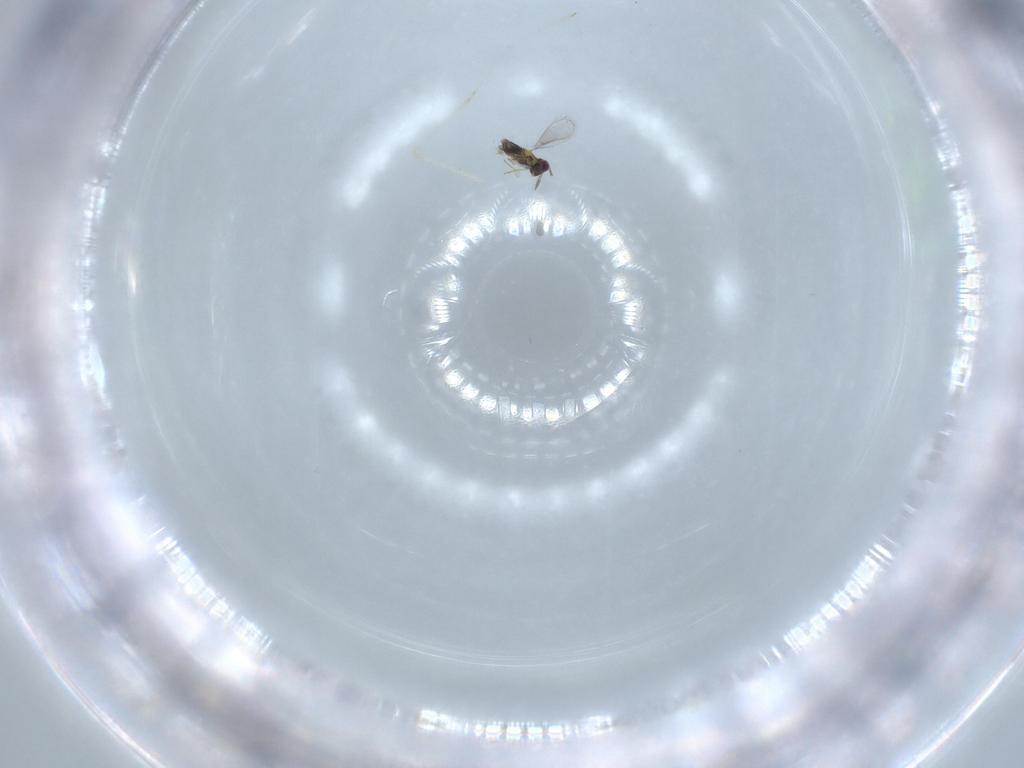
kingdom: Animalia
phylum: Arthropoda
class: Insecta
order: Hymenoptera
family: Aphelinidae
